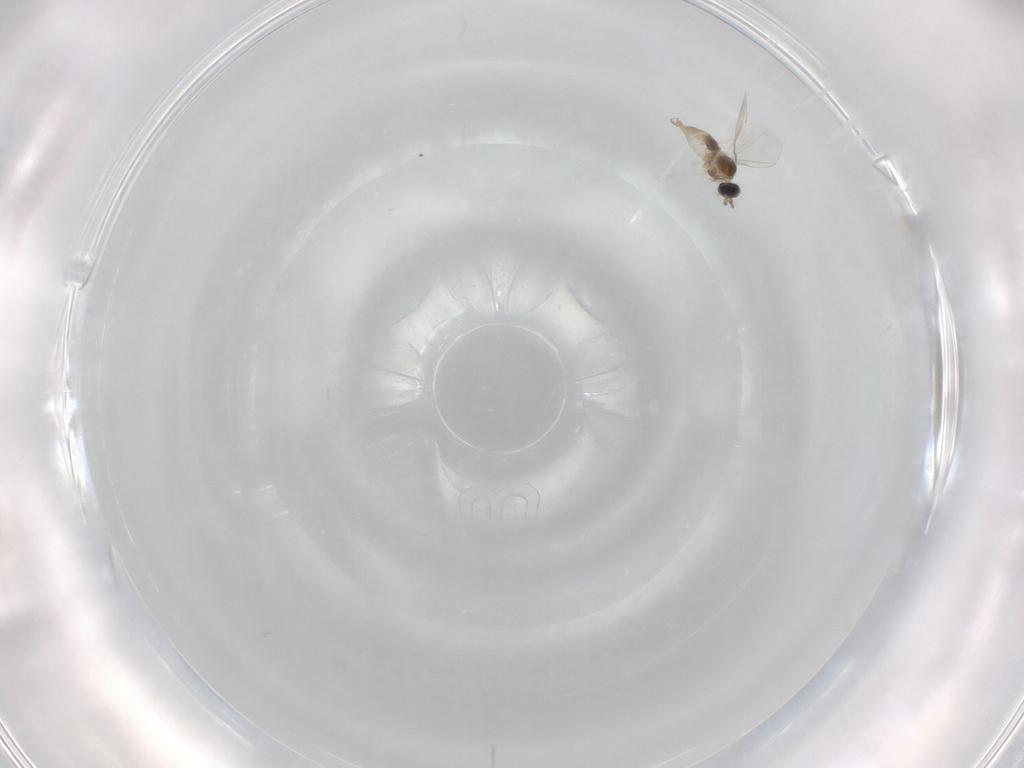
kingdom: Animalia
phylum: Arthropoda
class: Insecta
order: Diptera
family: Cecidomyiidae
